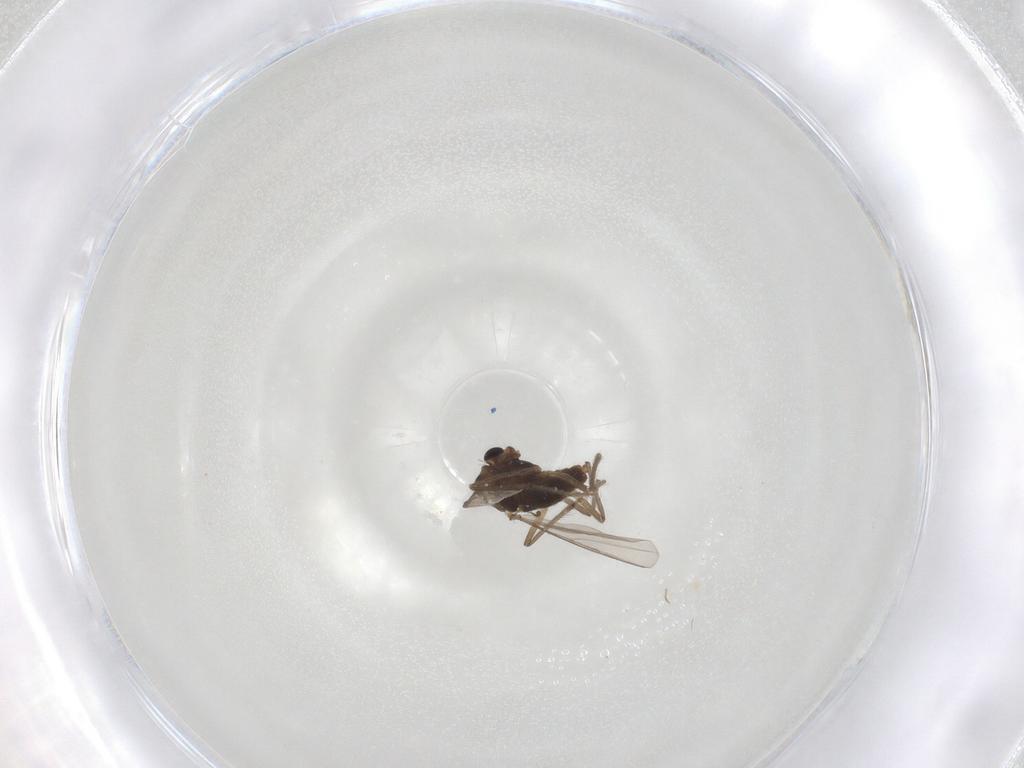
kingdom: Animalia
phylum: Arthropoda
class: Insecta
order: Diptera
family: Chironomidae
